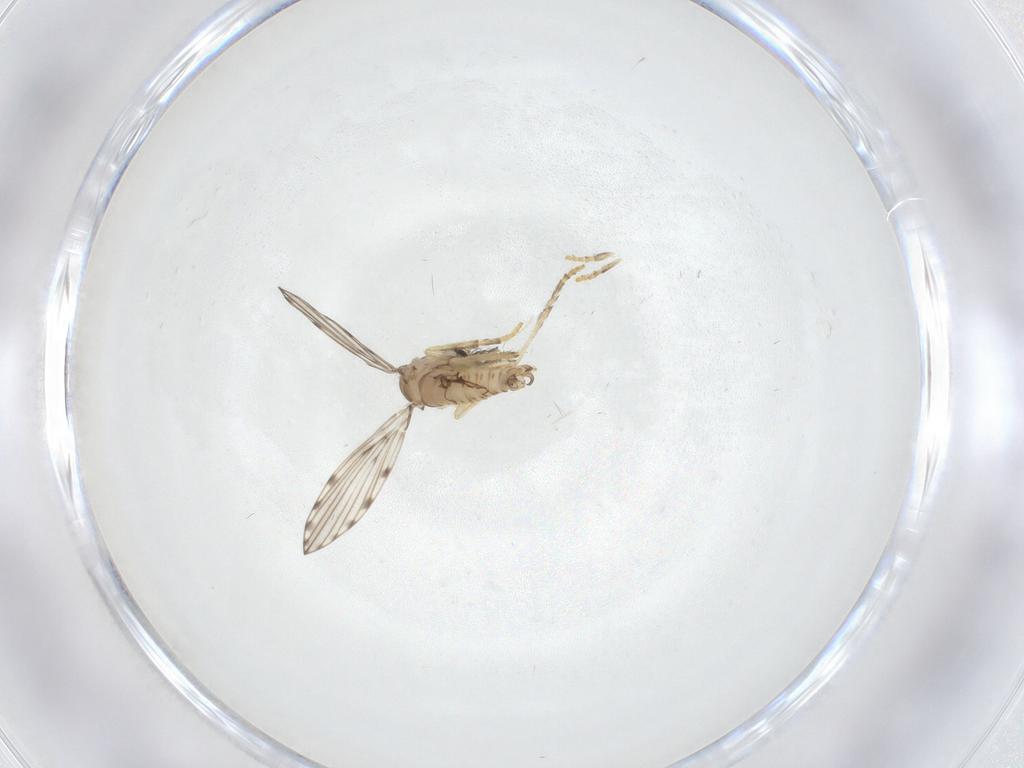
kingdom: Animalia
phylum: Arthropoda
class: Insecta
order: Diptera
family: Psychodidae
